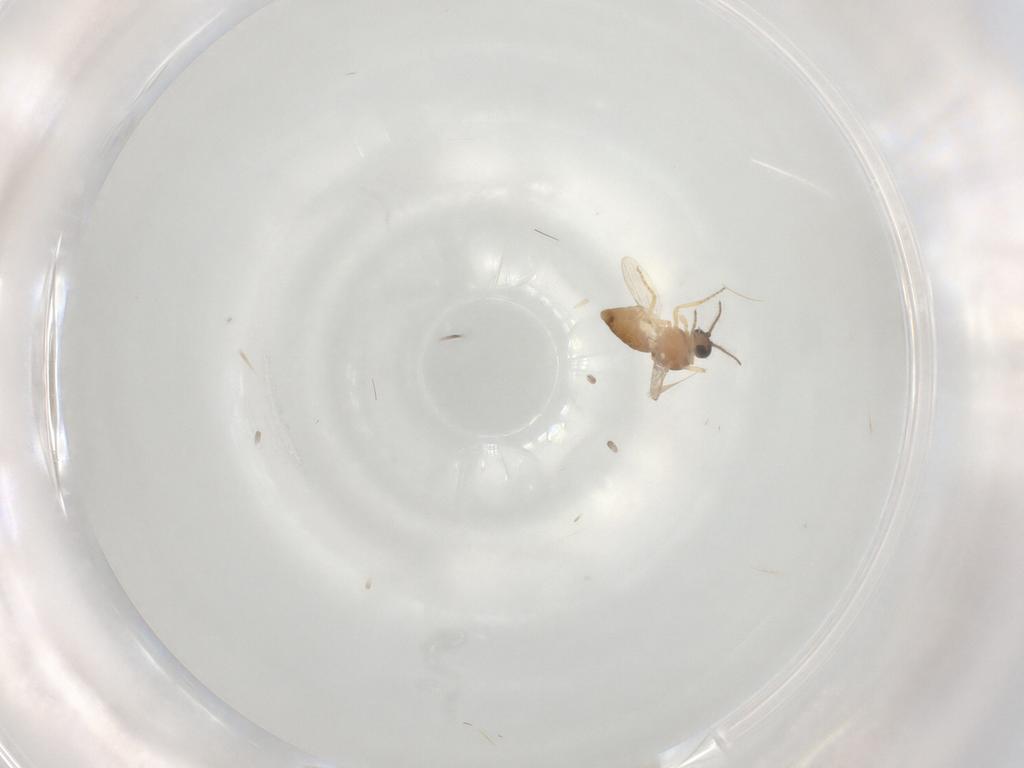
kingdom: Animalia
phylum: Arthropoda
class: Insecta
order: Diptera
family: Ceratopogonidae
